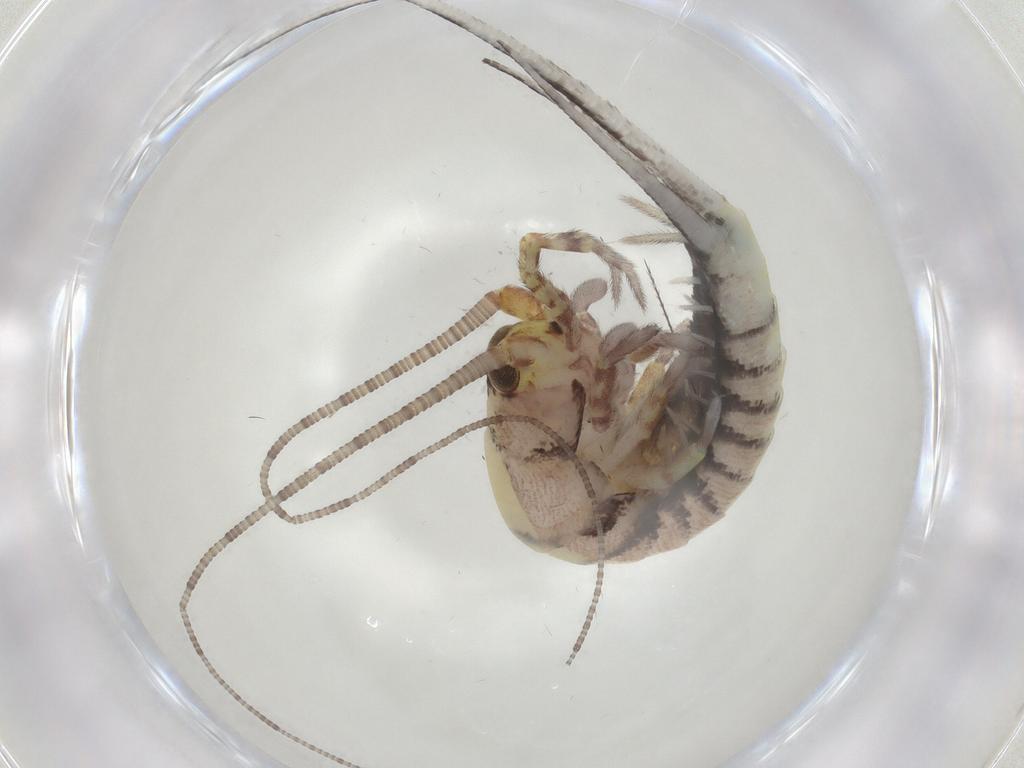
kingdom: Animalia
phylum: Arthropoda
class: Insecta
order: Archaeognatha
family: Machilidae
